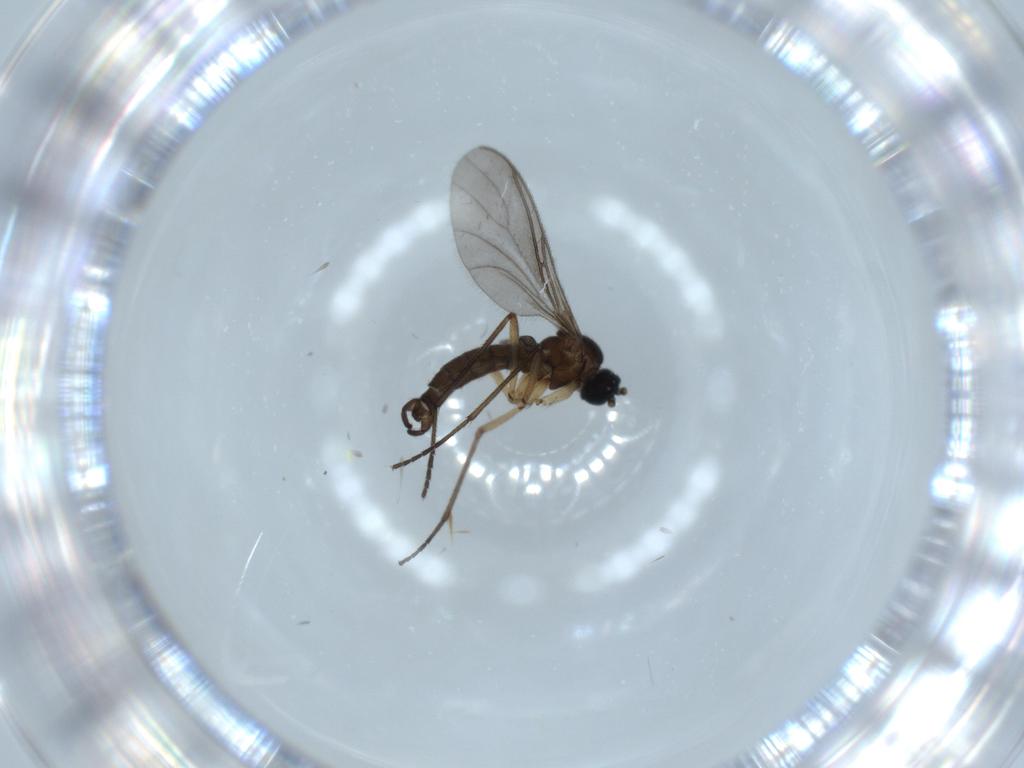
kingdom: Animalia
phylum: Arthropoda
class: Insecta
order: Diptera
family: Sciaridae
